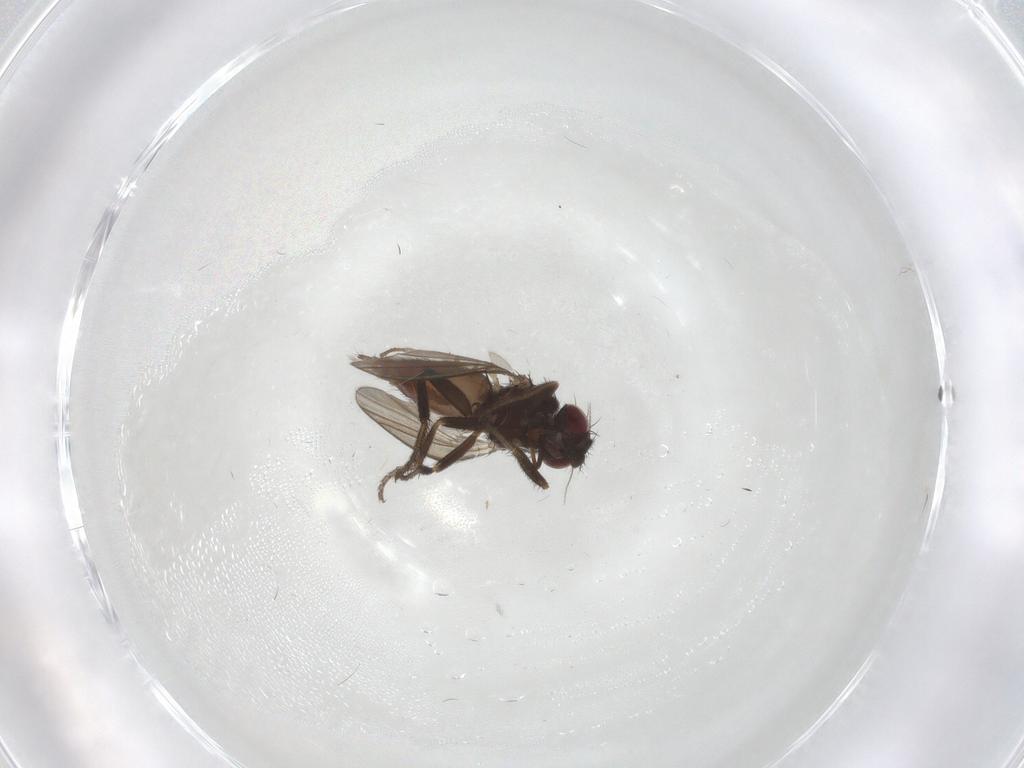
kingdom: Animalia
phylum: Arthropoda
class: Insecta
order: Diptera
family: Milichiidae
